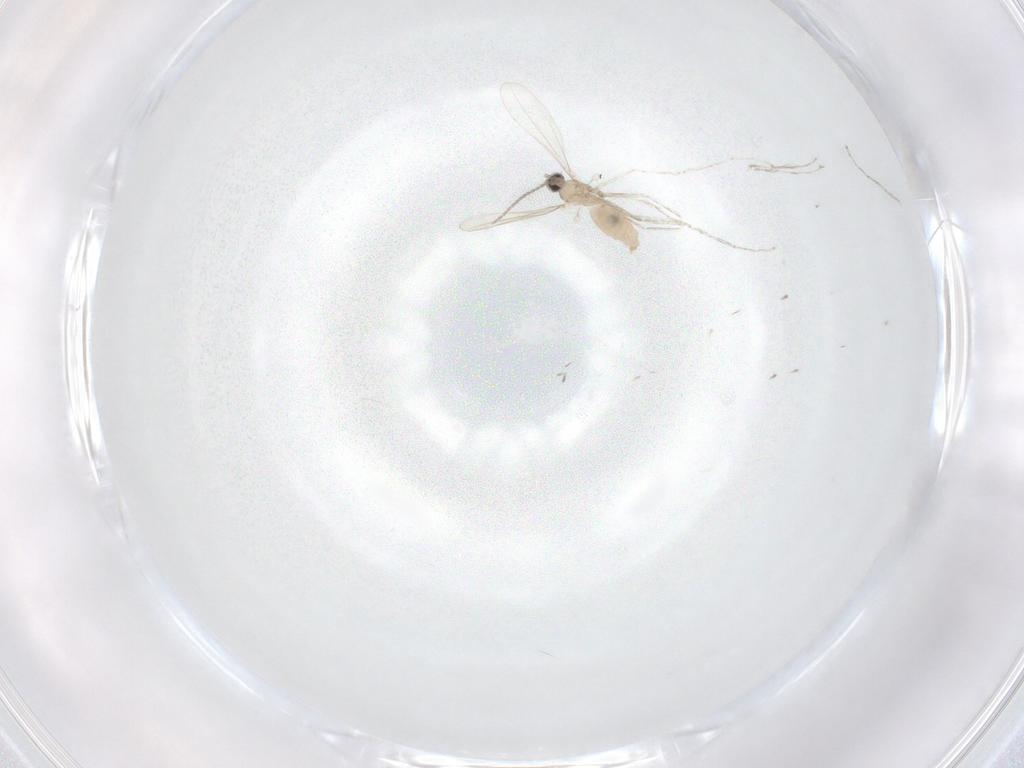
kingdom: Animalia
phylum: Arthropoda
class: Insecta
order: Diptera
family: Cecidomyiidae
